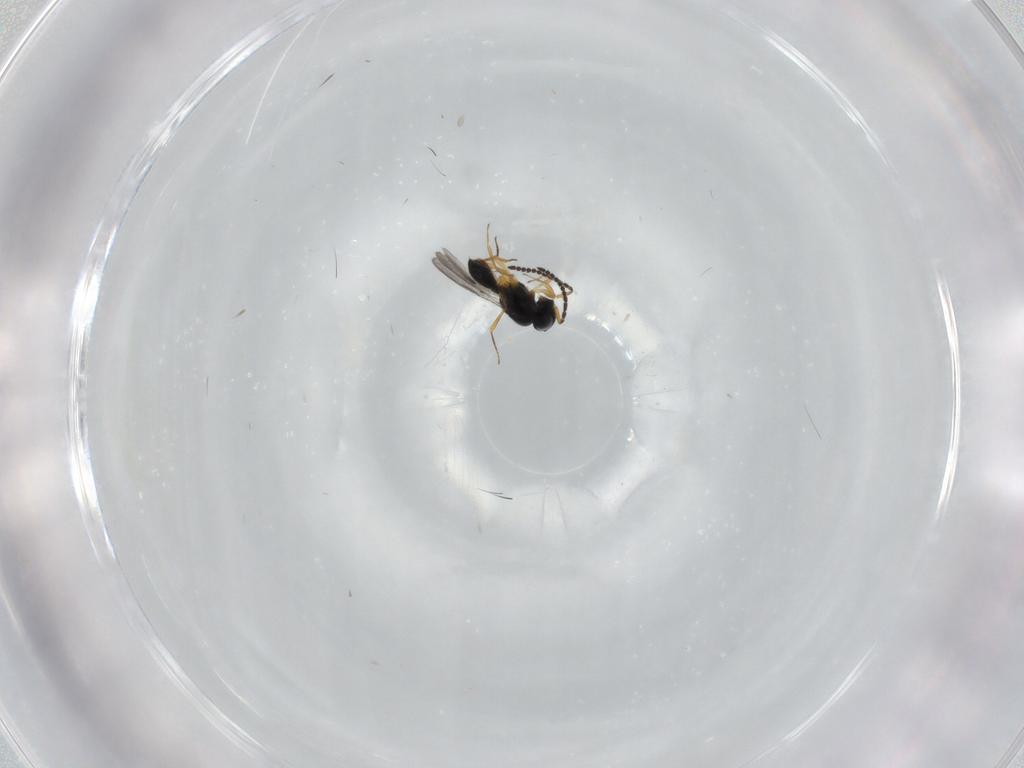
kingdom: Animalia
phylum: Arthropoda
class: Insecta
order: Hymenoptera
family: Scelionidae
